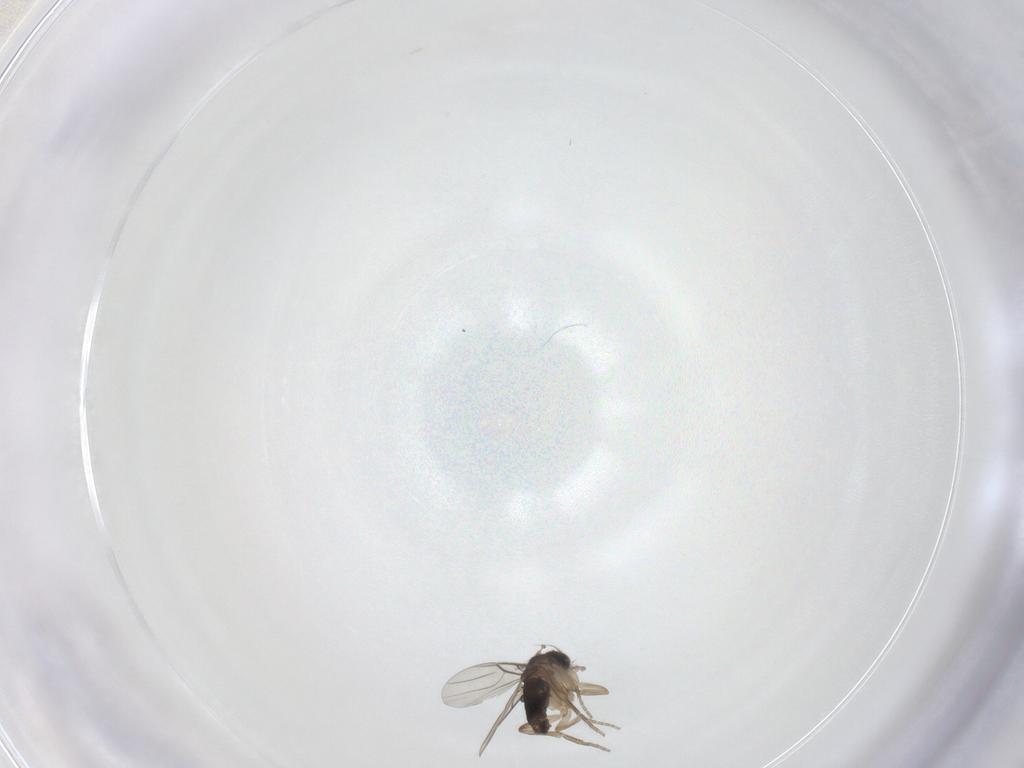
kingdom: Animalia
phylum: Arthropoda
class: Insecta
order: Diptera
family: Phoridae
